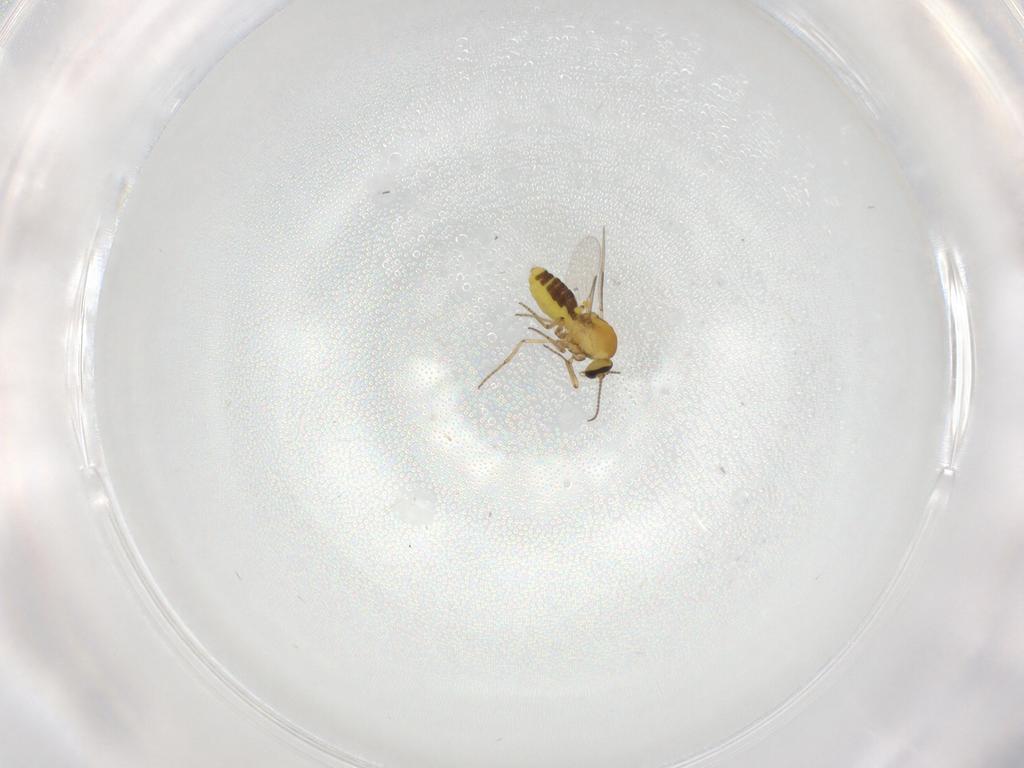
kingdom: Animalia
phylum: Arthropoda
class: Insecta
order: Diptera
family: Ceratopogonidae
